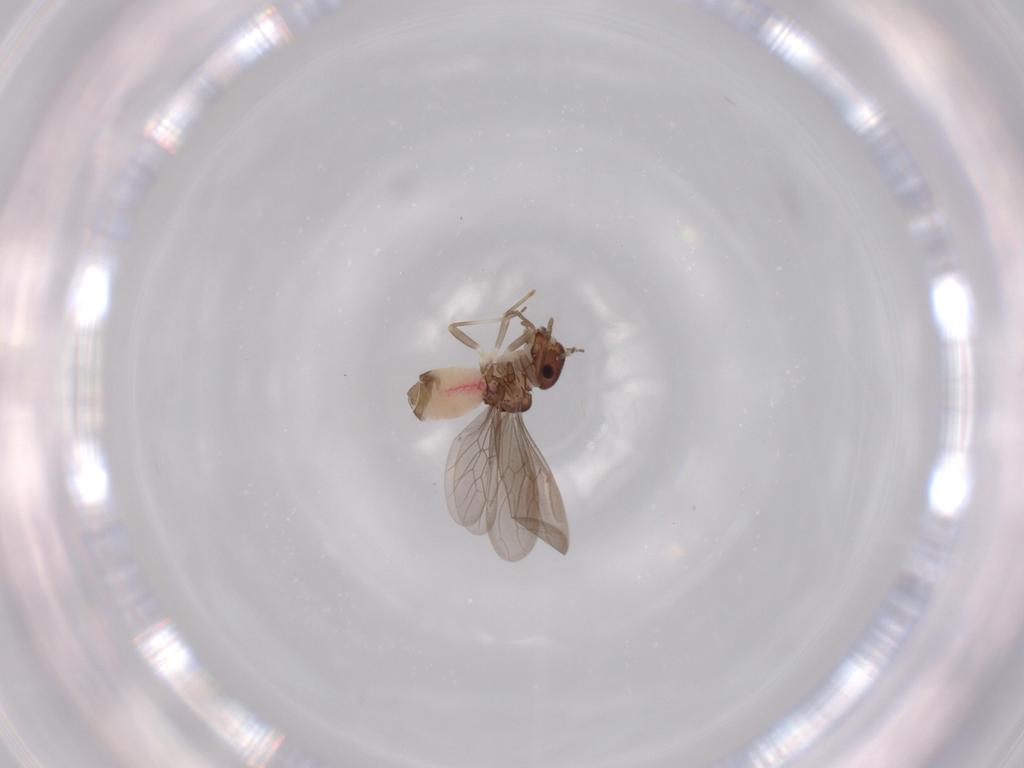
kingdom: Animalia
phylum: Arthropoda
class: Insecta
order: Psocodea
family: Asiopsocidae
